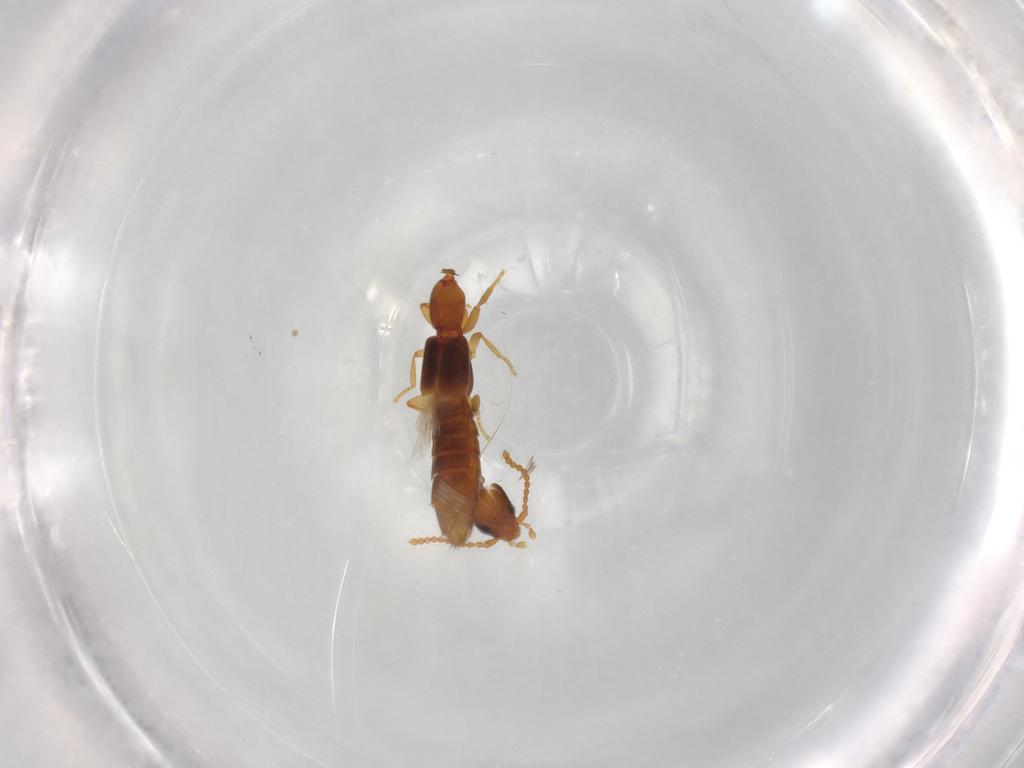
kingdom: Animalia
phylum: Arthropoda
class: Insecta
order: Coleoptera
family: Staphylinidae
